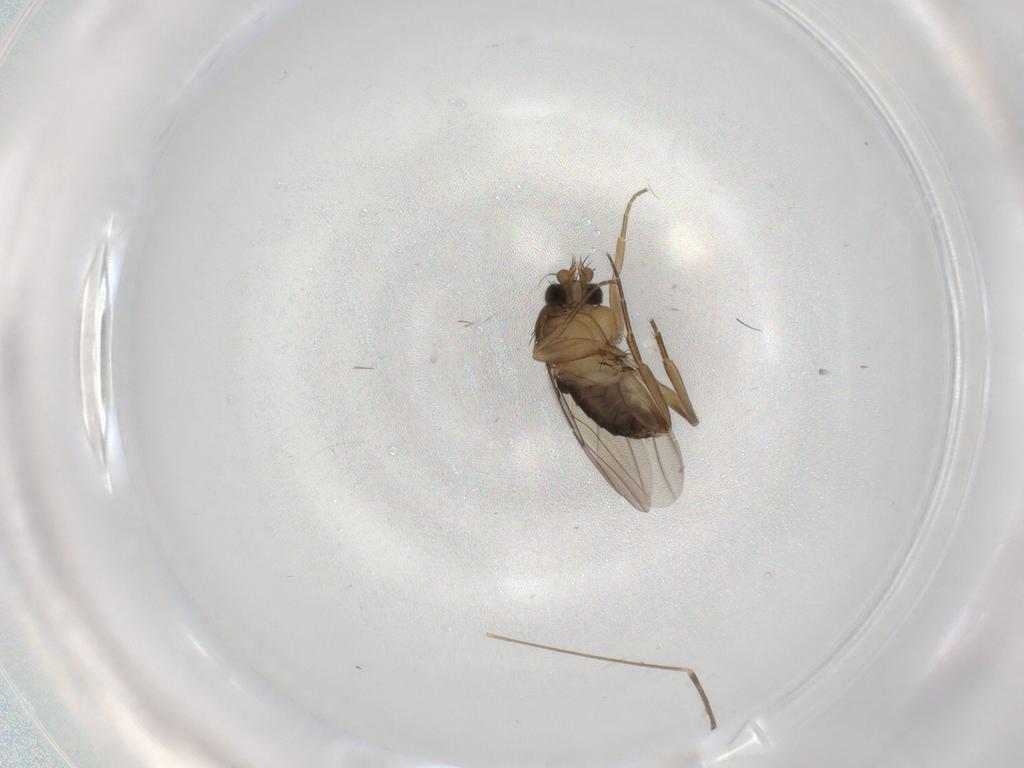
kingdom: Animalia
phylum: Arthropoda
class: Insecta
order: Diptera
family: Phoridae
